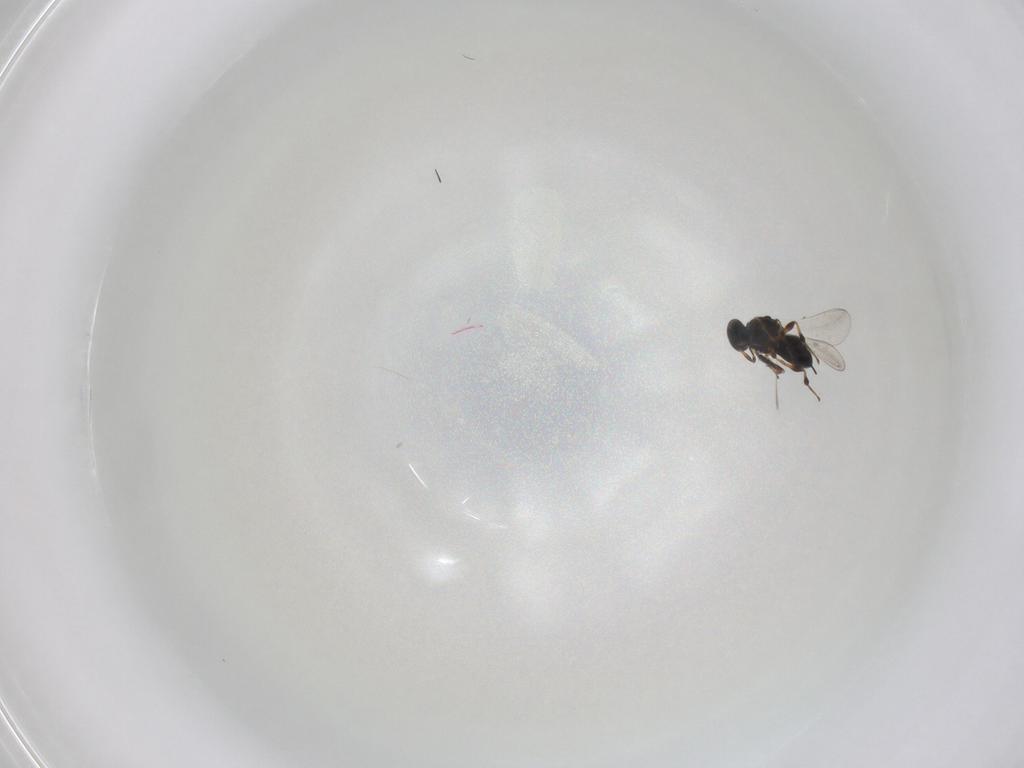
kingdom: Animalia
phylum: Arthropoda
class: Insecta
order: Hymenoptera
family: Platygastridae
